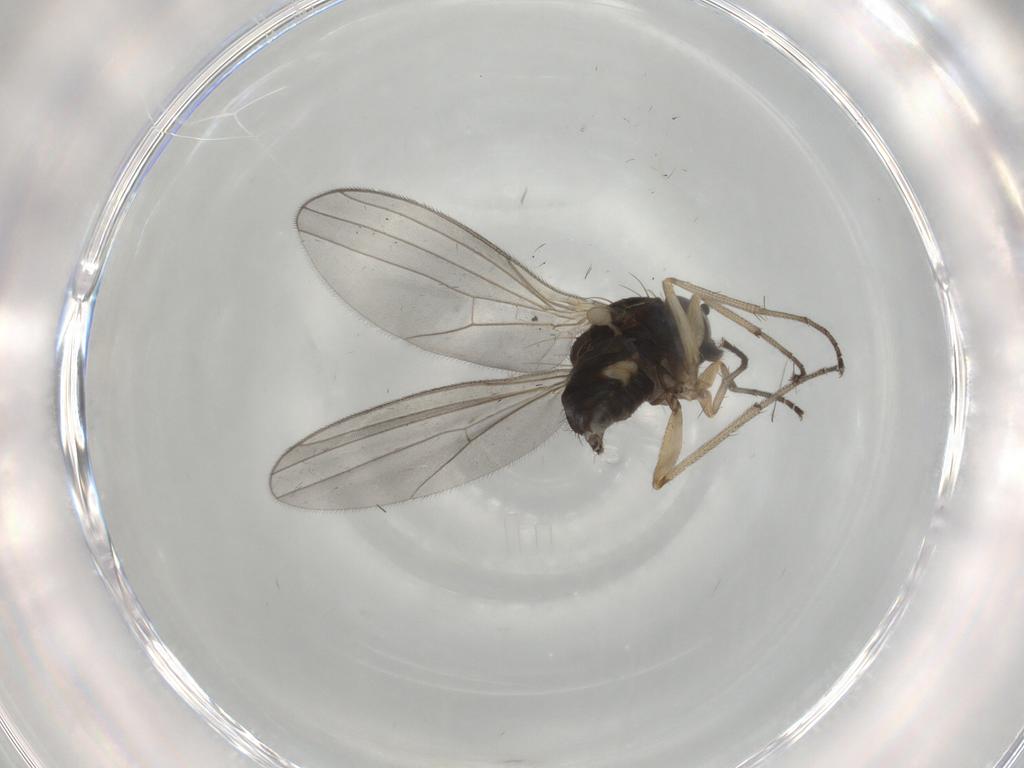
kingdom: Animalia
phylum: Arthropoda
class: Insecta
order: Diptera
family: Dolichopodidae
